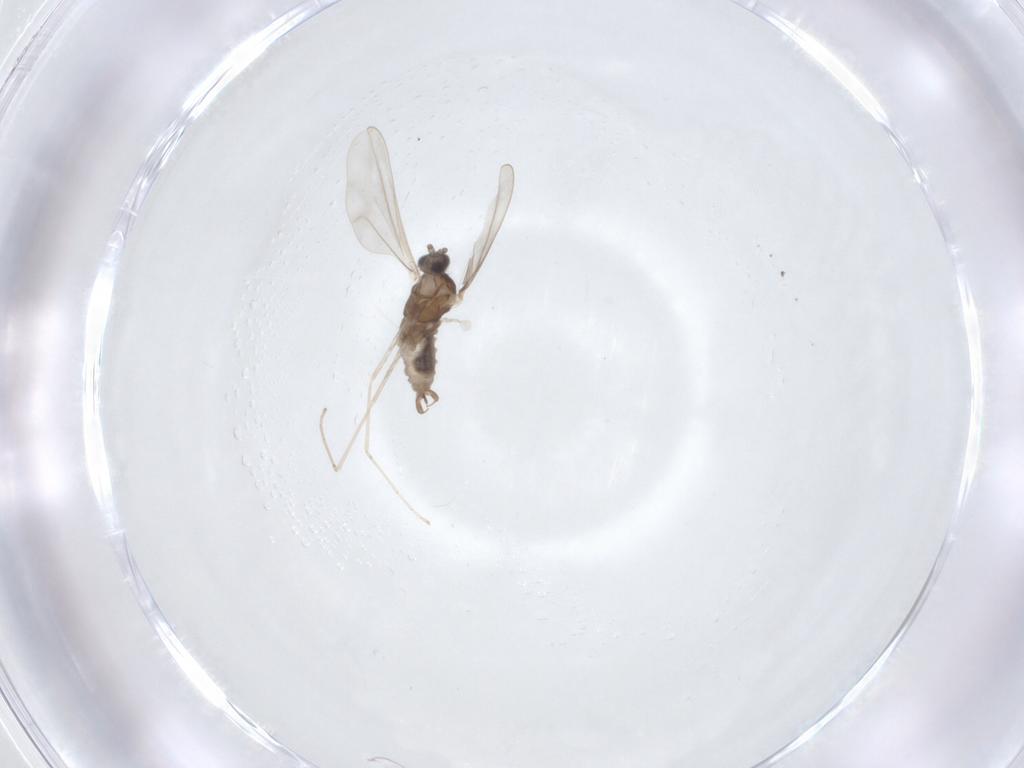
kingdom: Animalia
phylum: Arthropoda
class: Insecta
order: Diptera
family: Cecidomyiidae
